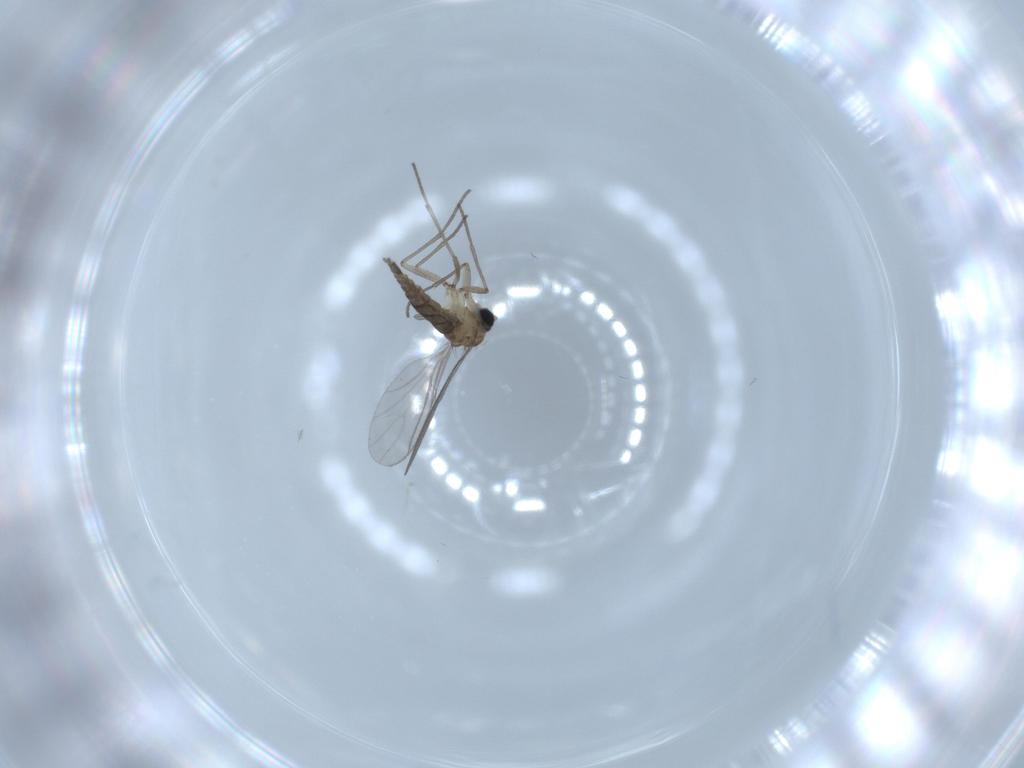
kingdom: Animalia
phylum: Arthropoda
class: Insecta
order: Diptera
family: Sciaridae
